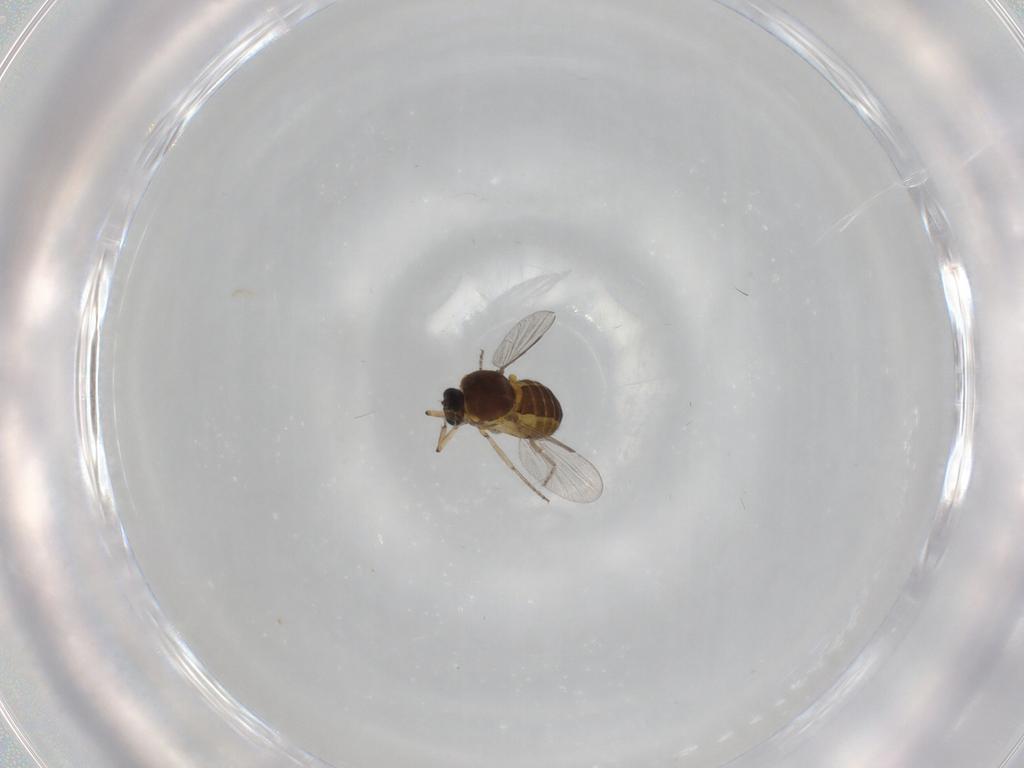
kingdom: Animalia
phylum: Arthropoda
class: Insecta
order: Diptera
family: Ceratopogonidae
